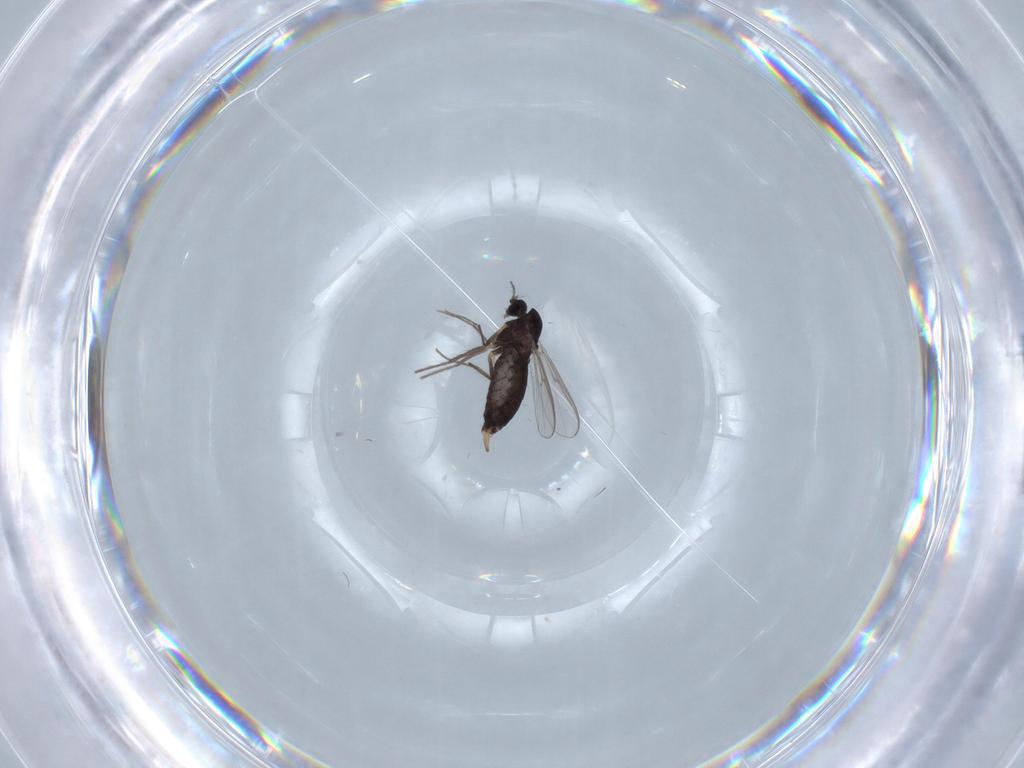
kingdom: Animalia
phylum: Arthropoda
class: Insecta
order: Diptera
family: Chironomidae
